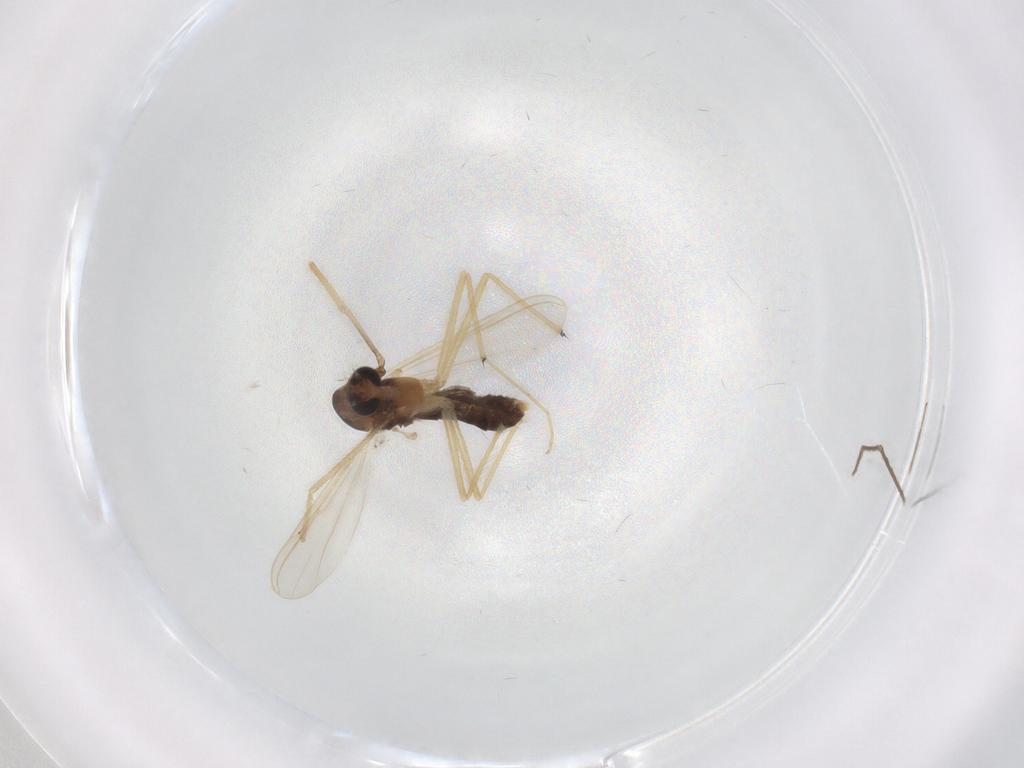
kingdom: Animalia
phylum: Arthropoda
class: Insecta
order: Diptera
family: Chironomidae
